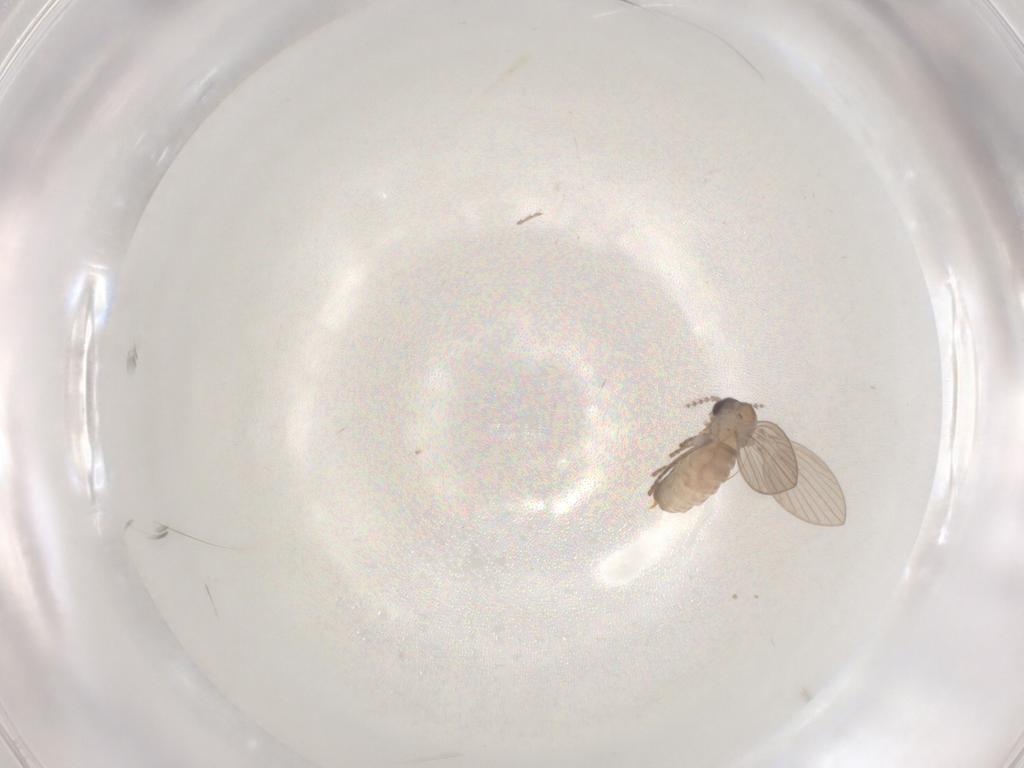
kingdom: Animalia
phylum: Arthropoda
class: Insecta
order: Diptera
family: Psychodidae
